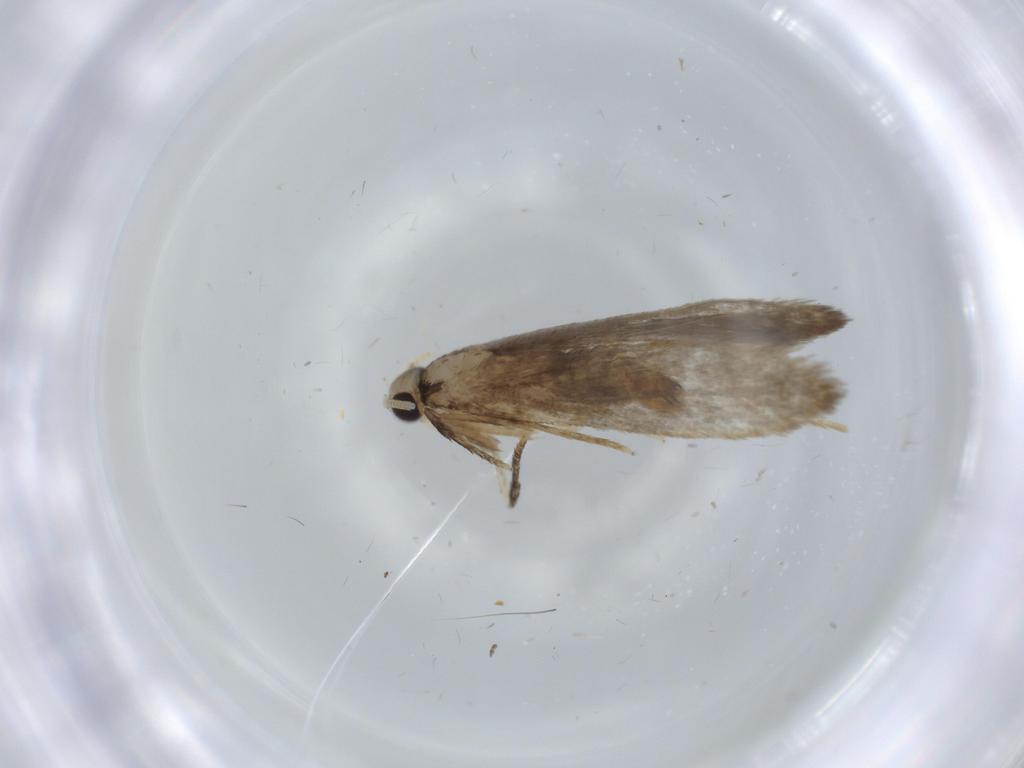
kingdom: Animalia
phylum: Arthropoda
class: Insecta
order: Lepidoptera
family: Tineidae
